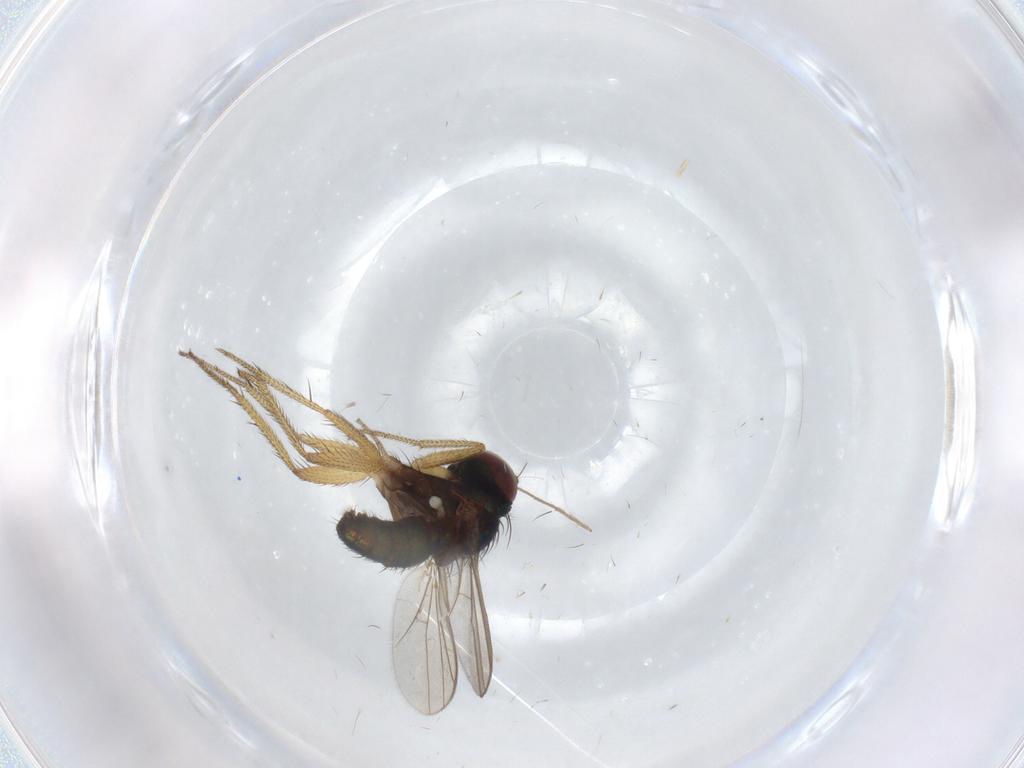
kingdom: Animalia
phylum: Arthropoda
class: Insecta
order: Diptera
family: Chironomidae
